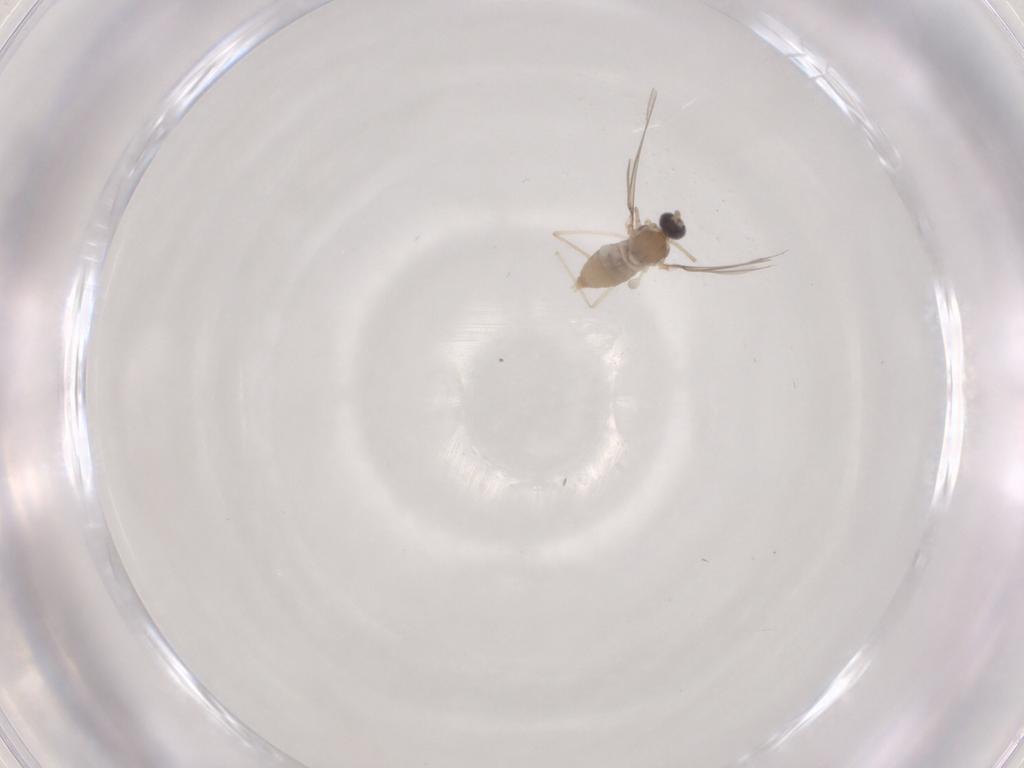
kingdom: Animalia
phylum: Arthropoda
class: Insecta
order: Diptera
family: Cecidomyiidae
